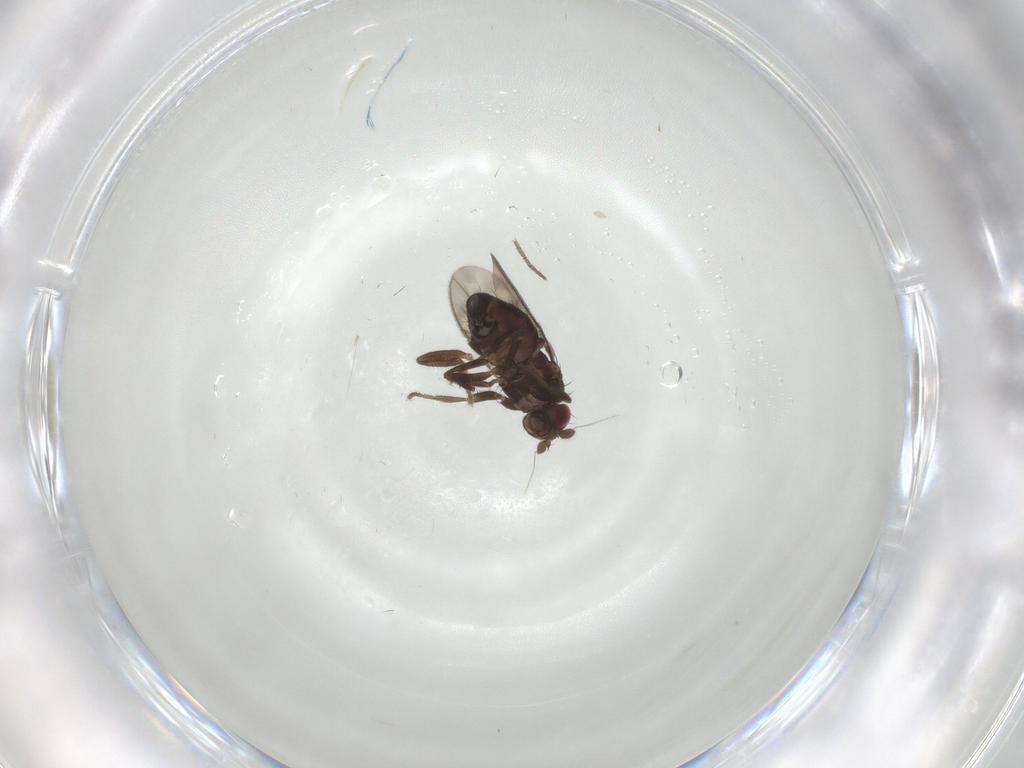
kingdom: Animalia
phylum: Arthropoda
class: Insecta
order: Diptera
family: Sphaeroceridae
